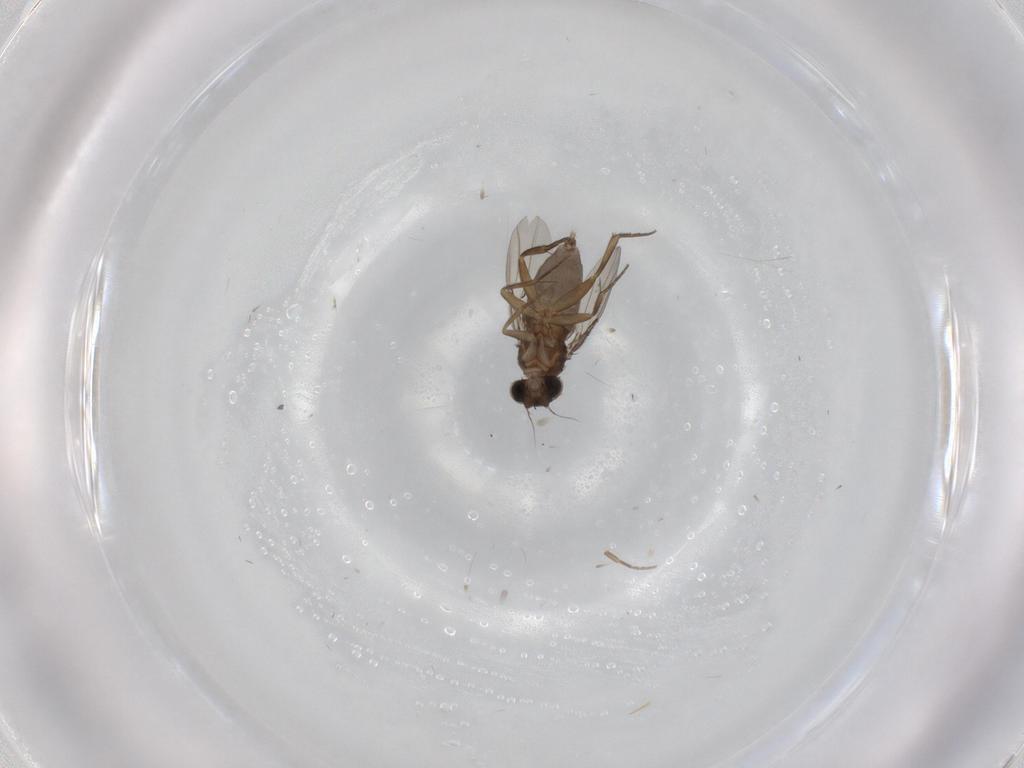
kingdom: Animalia
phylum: Arthropoda
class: Insecta
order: Diptera
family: Phoridae
